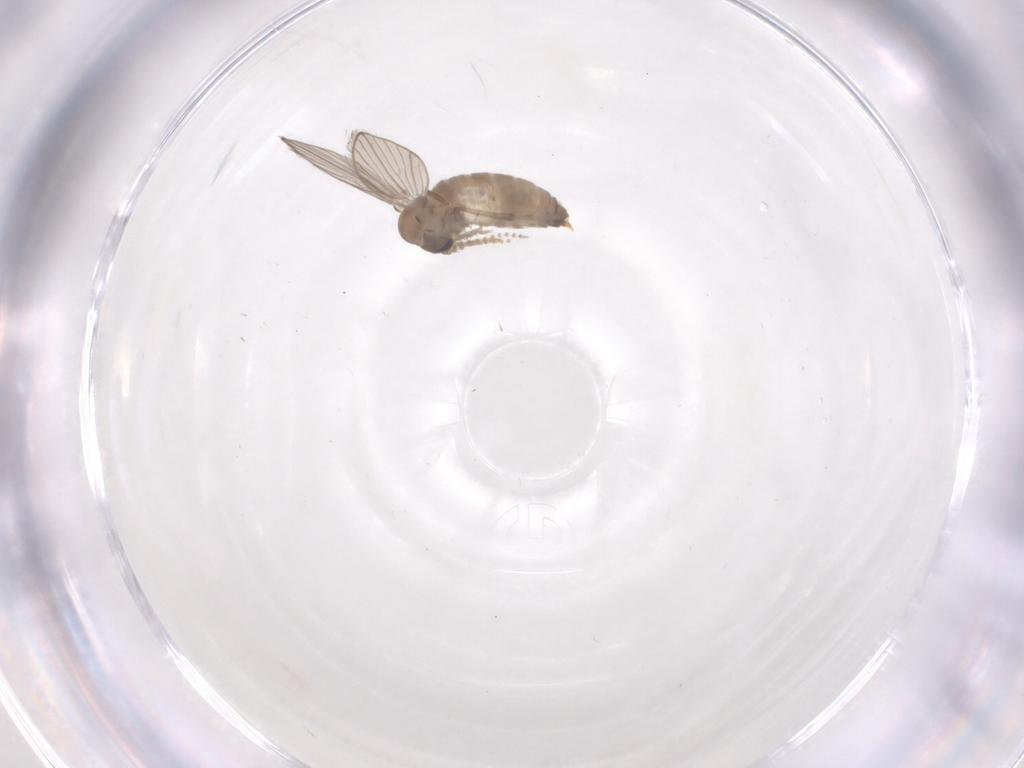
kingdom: Animalia
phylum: Arthropoda
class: Insecta
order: Diptera
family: Psychodidae
